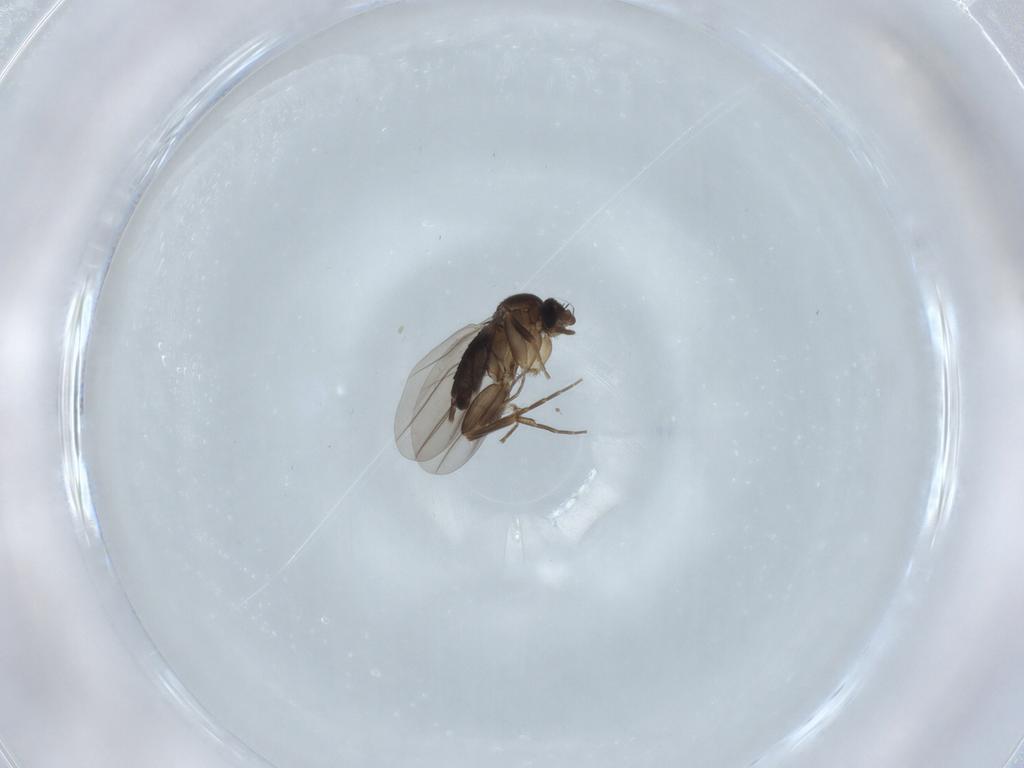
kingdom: Animalia
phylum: Arthropoda
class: Insecta
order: Diptera
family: Phoridae
